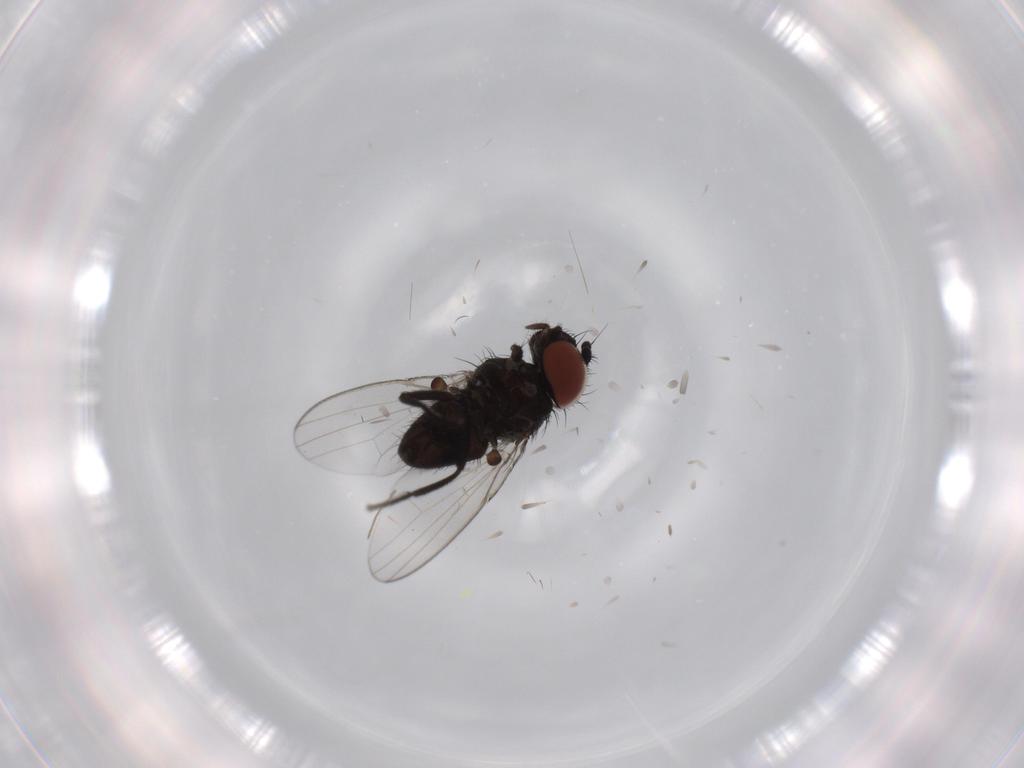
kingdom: Animalia
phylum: Arthropoda
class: Insecta
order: Diptera
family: Milichiidae
